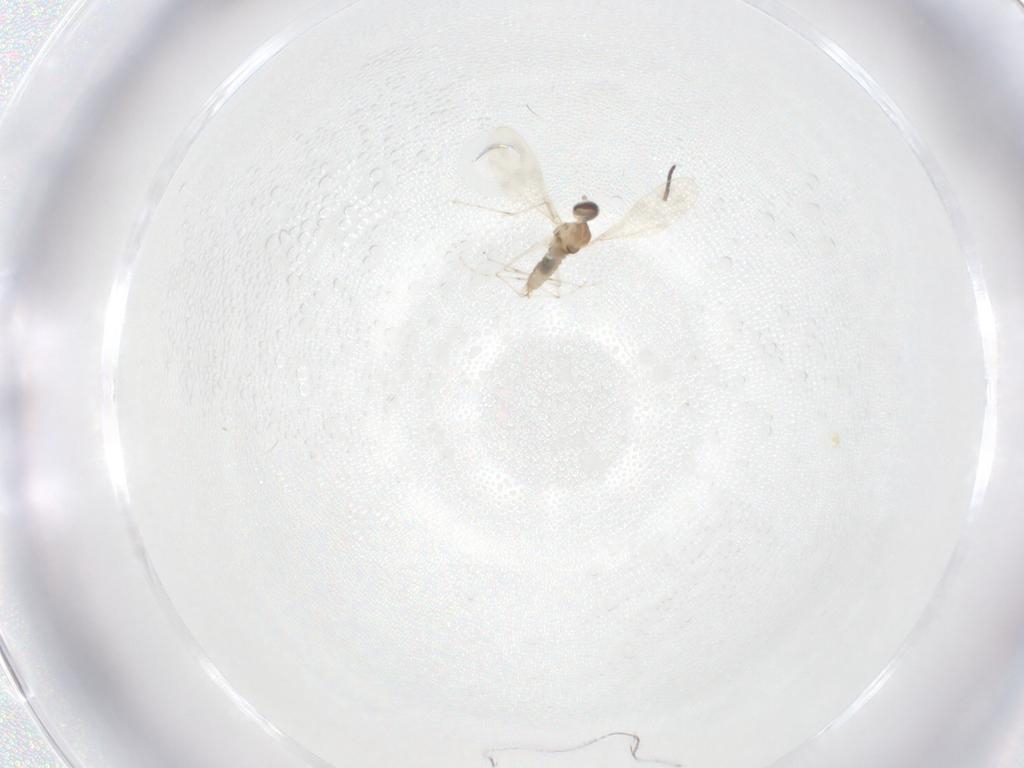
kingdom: Animalia
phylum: Arthropoda
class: Insecta
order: Diptera
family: Cecidomyiidae
